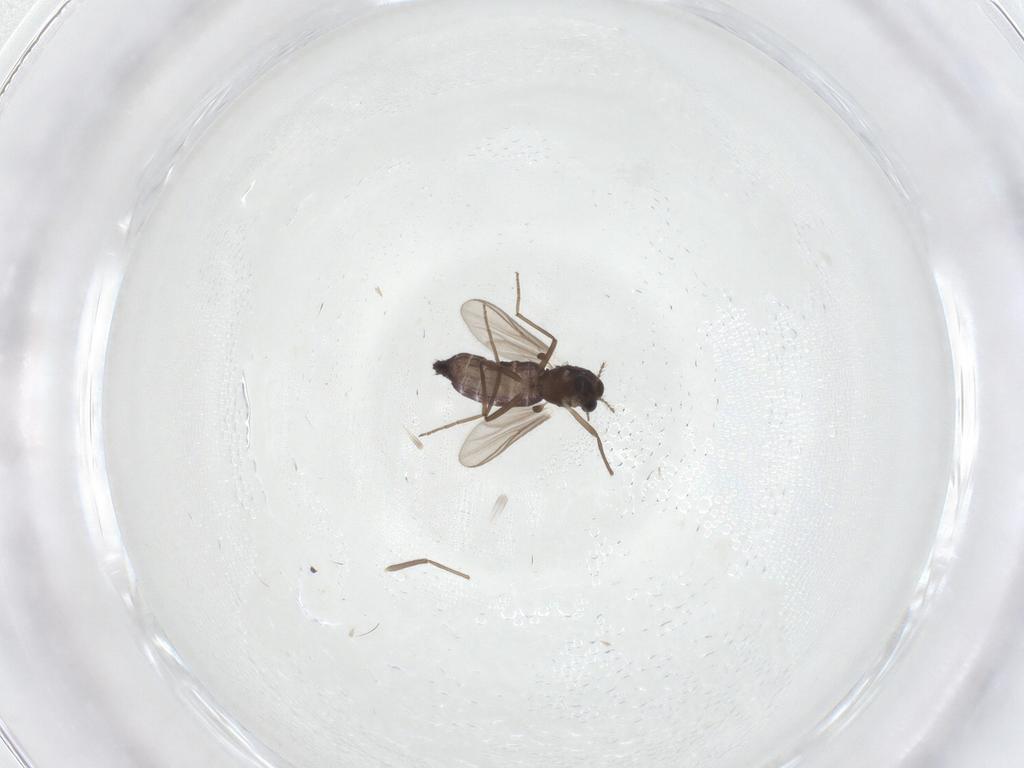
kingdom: Animalia
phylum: Arthropoda
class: Insecta
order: Diptera
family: Chironomidae
